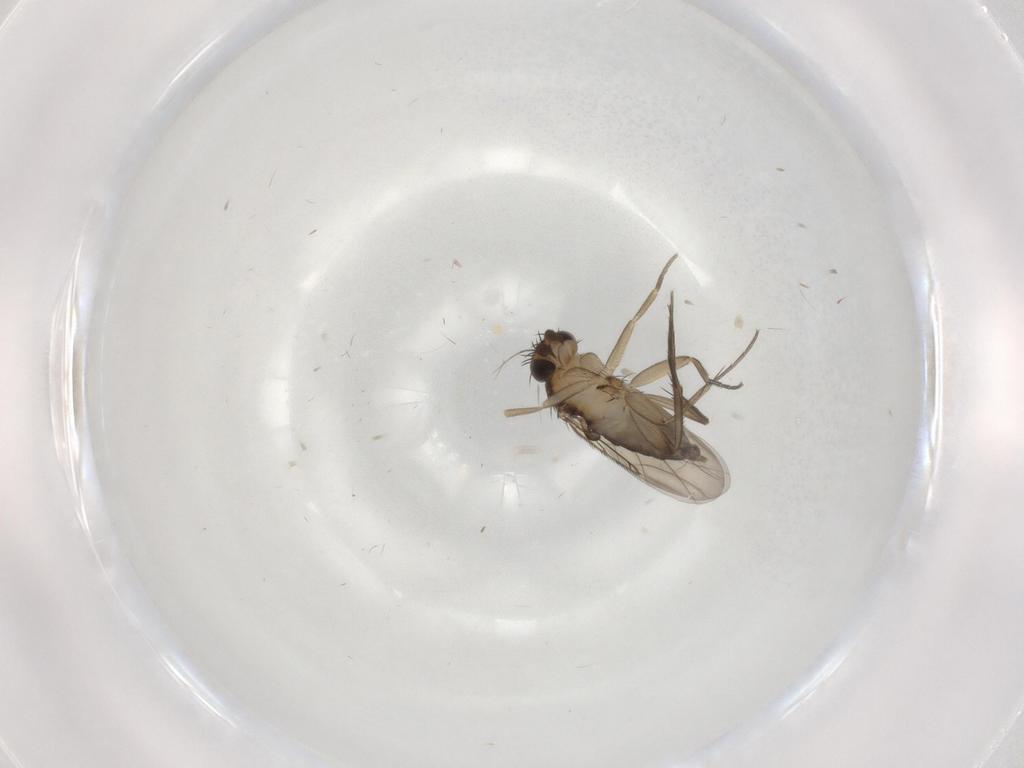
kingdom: Animalia
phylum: Arthropoda
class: Insecta
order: Diptera
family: Phoridae
